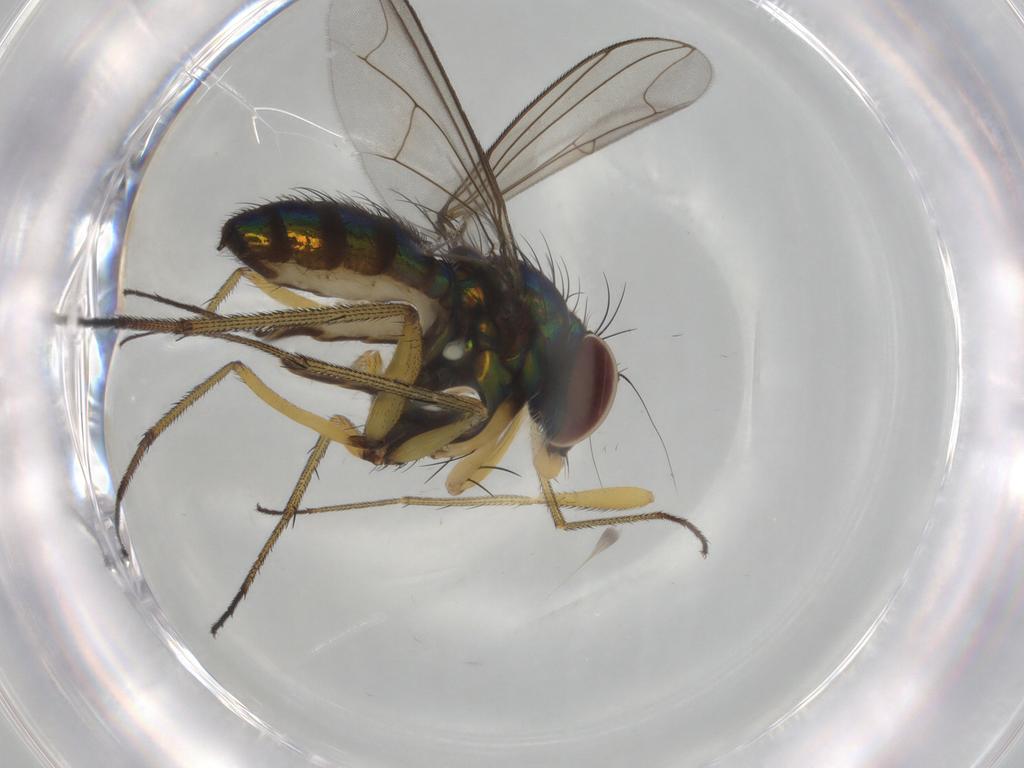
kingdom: Animalia
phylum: Arthropoda
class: Insecta
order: Diptera
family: Dolichopodidae
